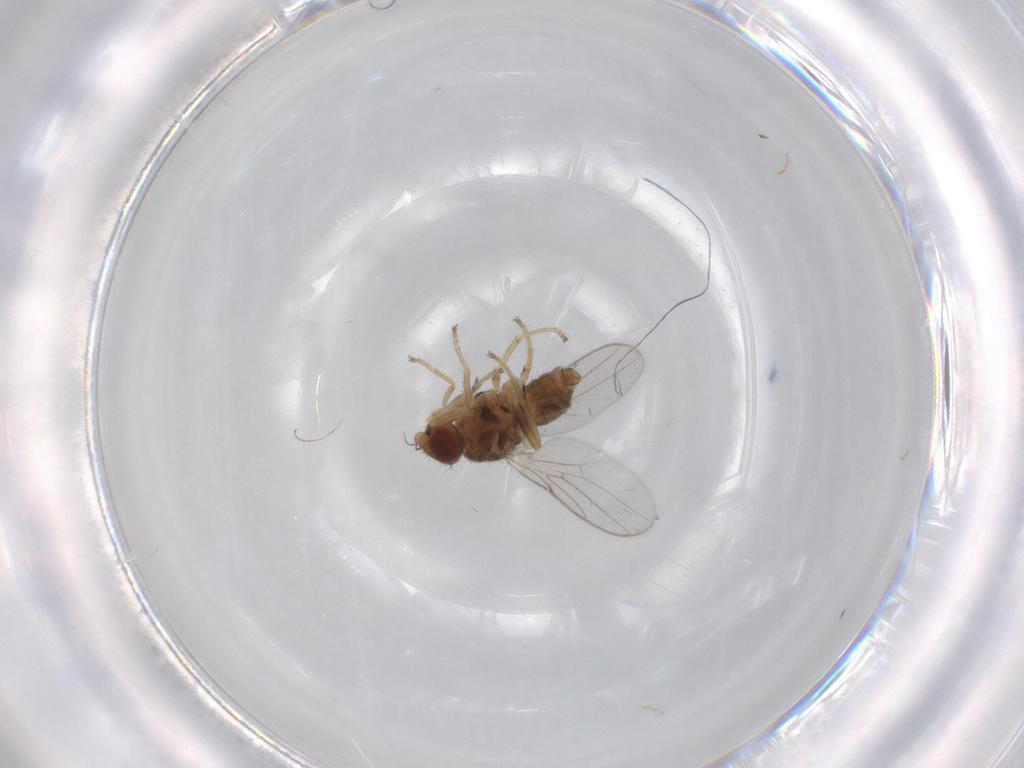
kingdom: Animalia
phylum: Arthropoda
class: Insecta
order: Diptera
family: Chloropidae
